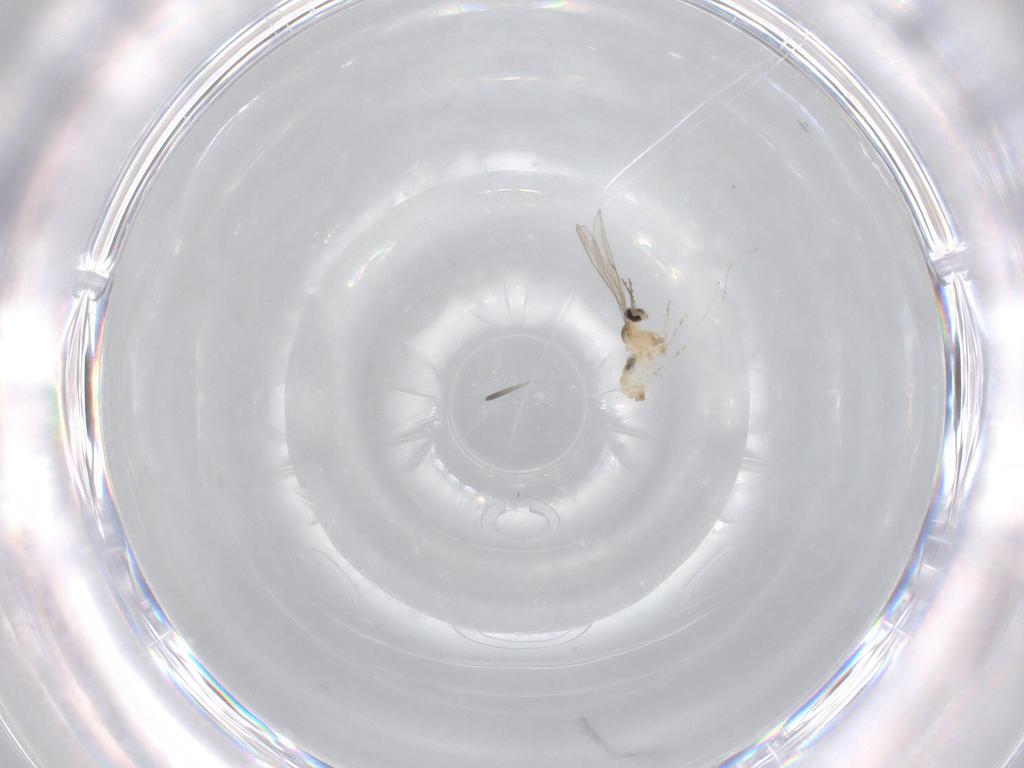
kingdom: Animalia
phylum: Arthropoda
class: Insecta
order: Diptera
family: Cecidomyiidae
